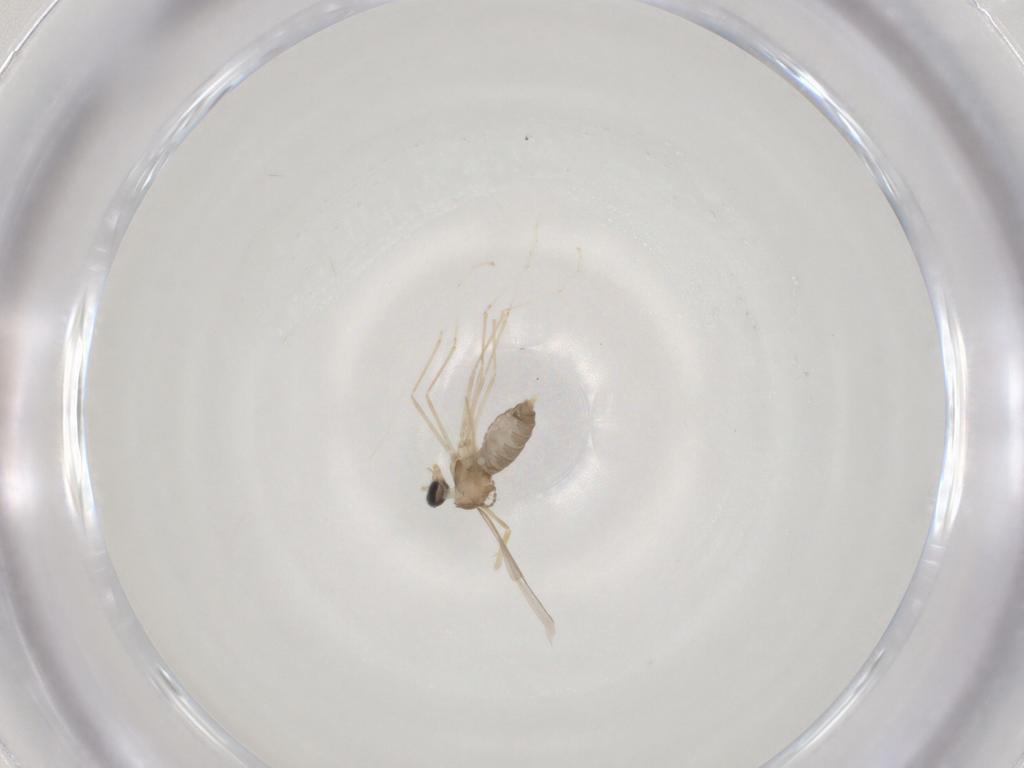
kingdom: Animalia
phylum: Arthropoda
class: Insecta
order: Diptera
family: Cecidomyiidae
